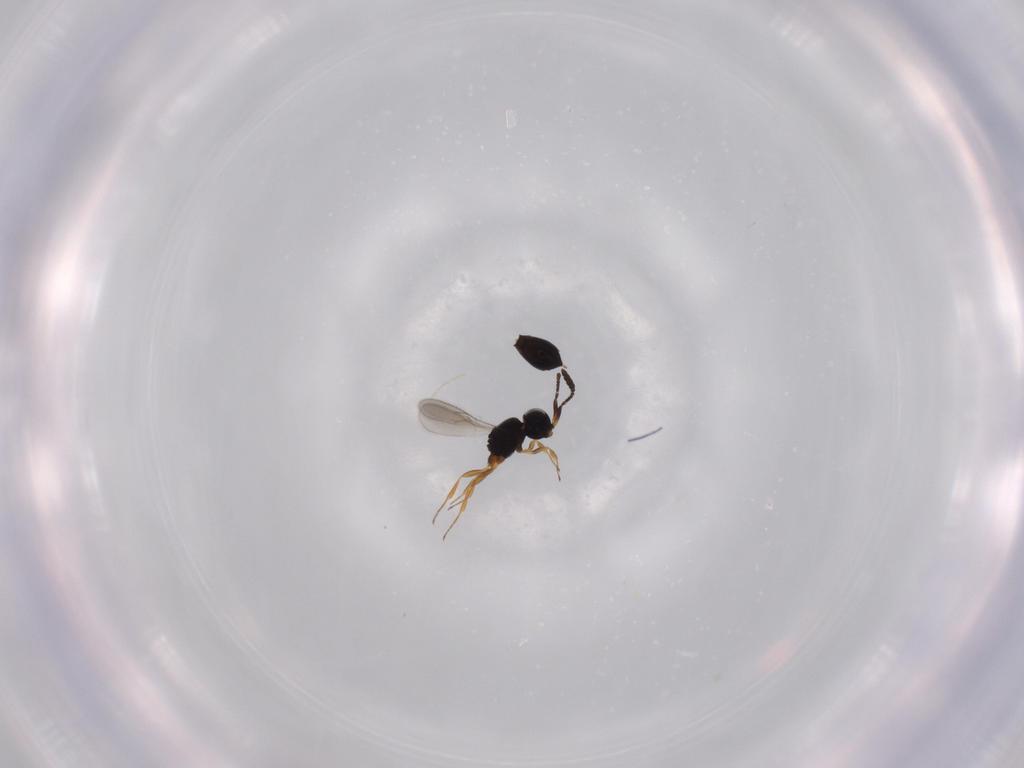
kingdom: Animalia
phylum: Arthropoda
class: Insecta
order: Hymenoptera
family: Scelionidae
